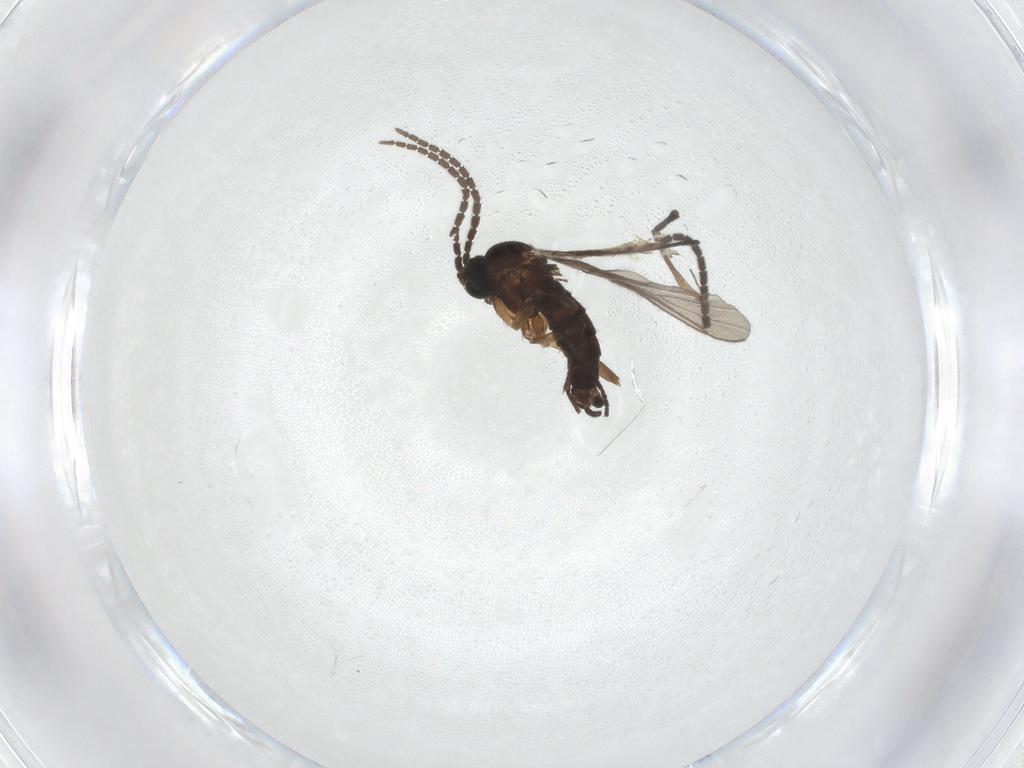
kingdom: Animalia
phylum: Arthropoda
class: Insecta
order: Diptera
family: Sciaridae
